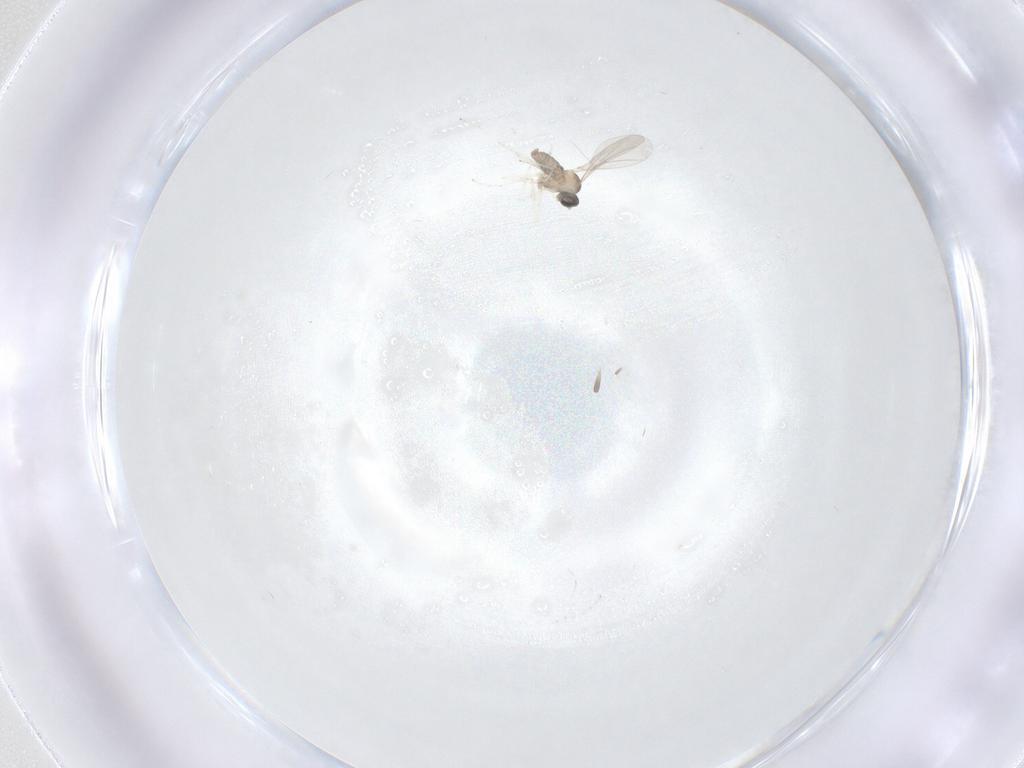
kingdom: Animalia
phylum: Arthropoda
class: Insecta
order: Diptera
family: Cecidomyiidae
